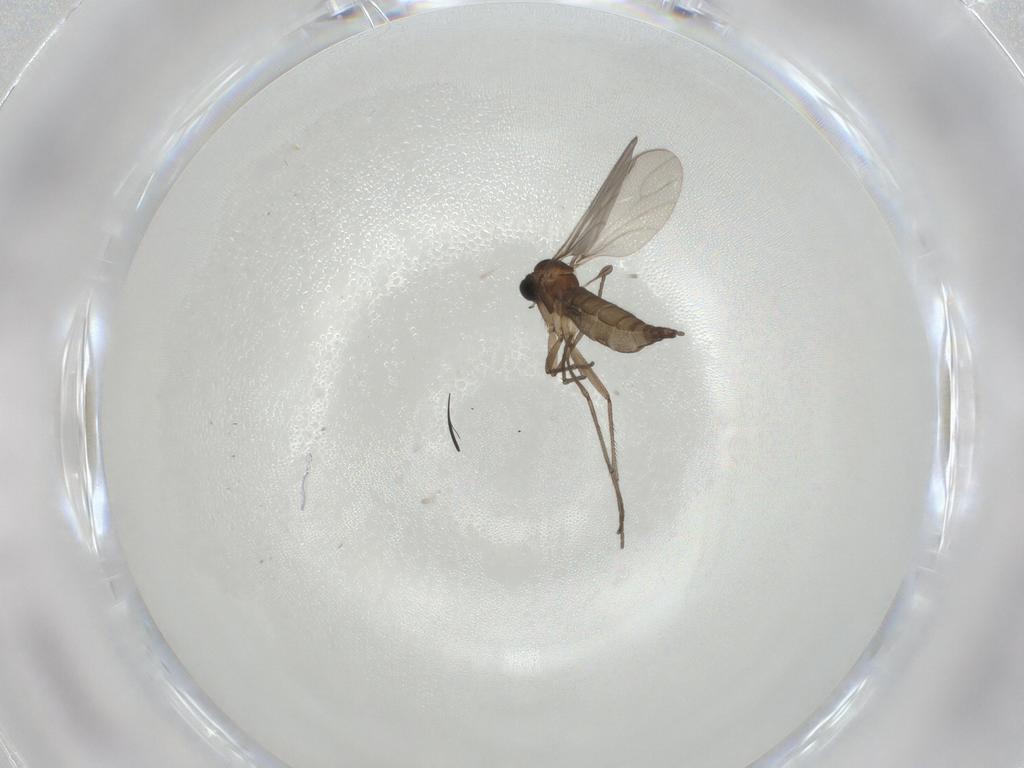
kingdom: Animalia
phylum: Arthropoda
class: Insecta
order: Diptera
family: Sciaridae
